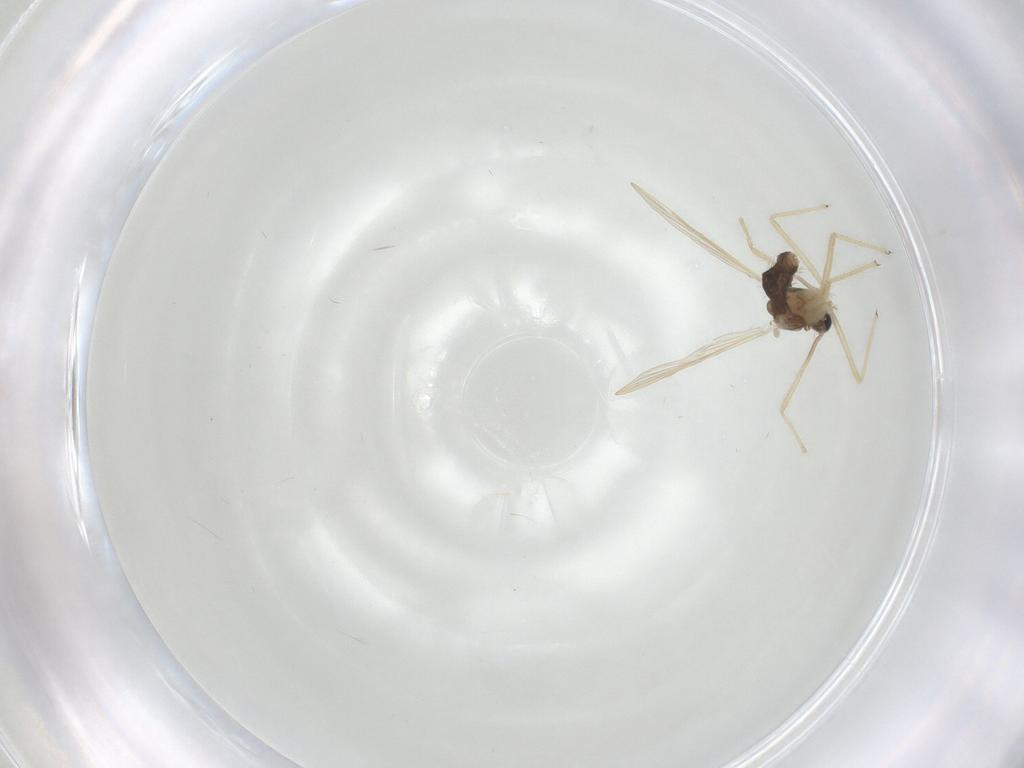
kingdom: Animalia
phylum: Arthropoda
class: Insecta
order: Diptera
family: Chironomidae
